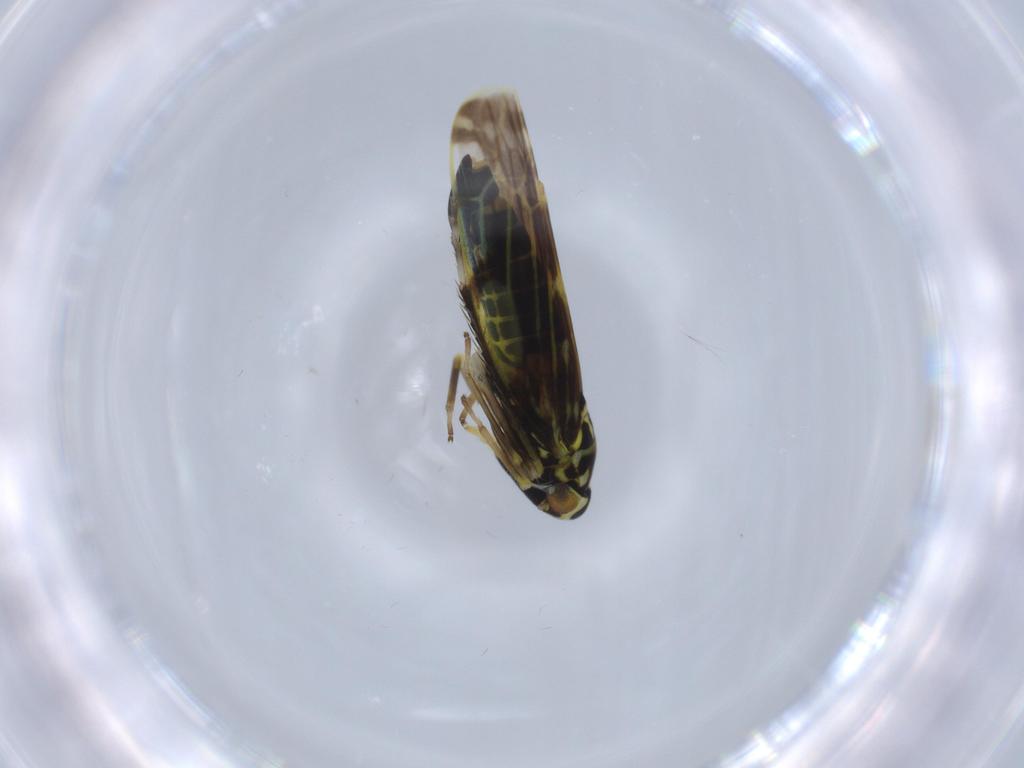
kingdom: Animalia
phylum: Arthropoda
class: Insecta
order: Hemiptera
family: Cicadellidae
